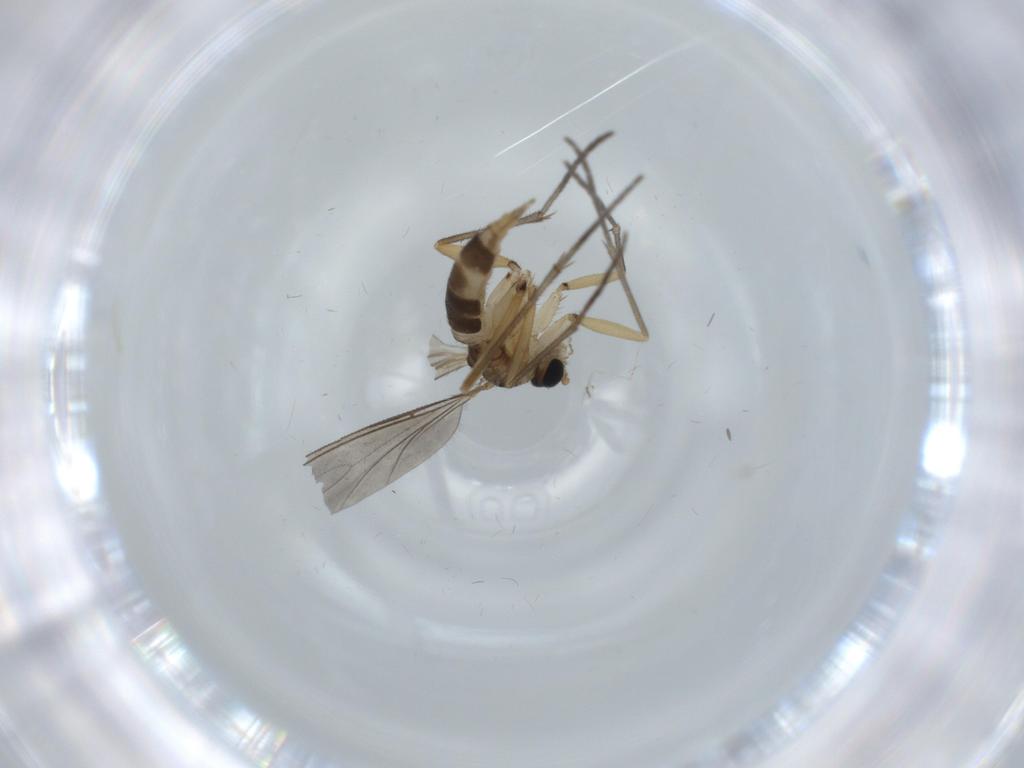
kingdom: Animalia
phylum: Arthropoda
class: Insecta
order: Diptera
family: Sciaridae
